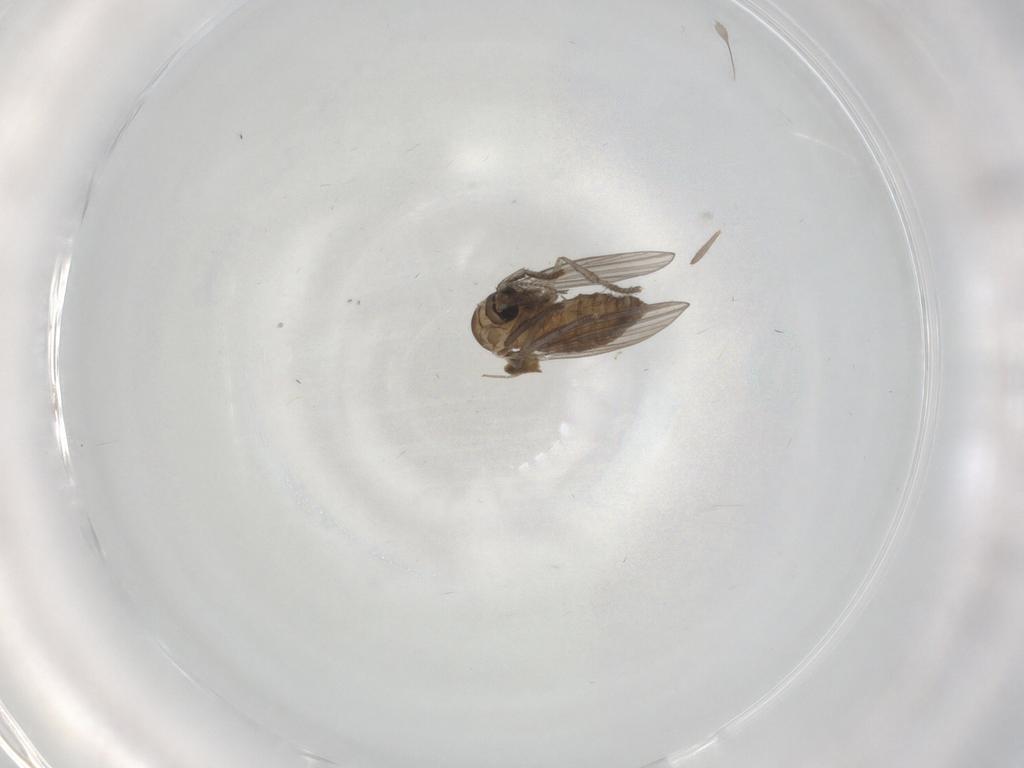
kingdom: Animalia
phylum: Arthropoda
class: Insecta
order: Diptera
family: Psychodidae
